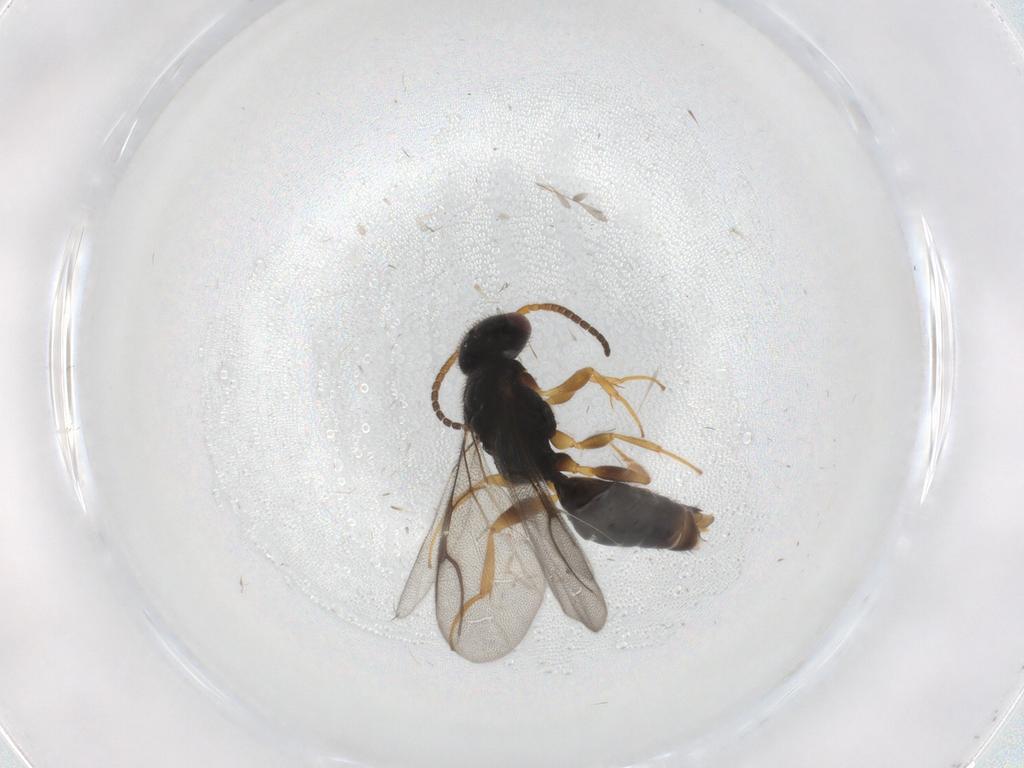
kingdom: Animalia
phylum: Arthropoda
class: Insecta
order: Hymenoptera
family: Bethylidae
